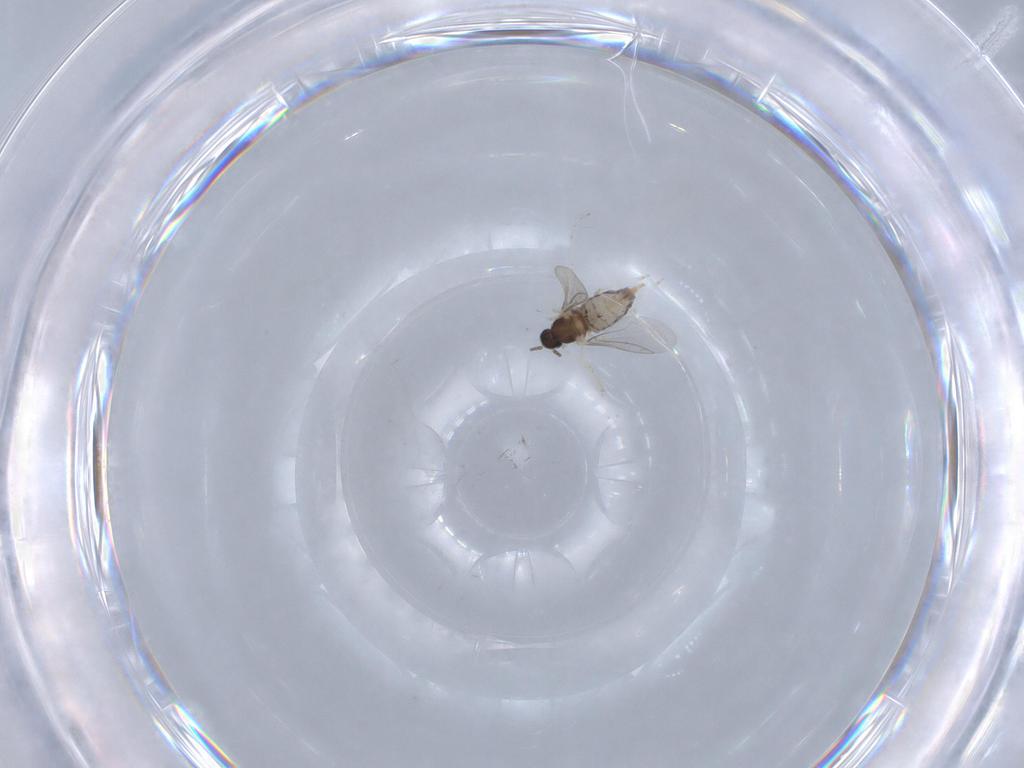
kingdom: Animalia
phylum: Arthropoda
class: Insecta
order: Diptera
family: Cecidomyiidae
